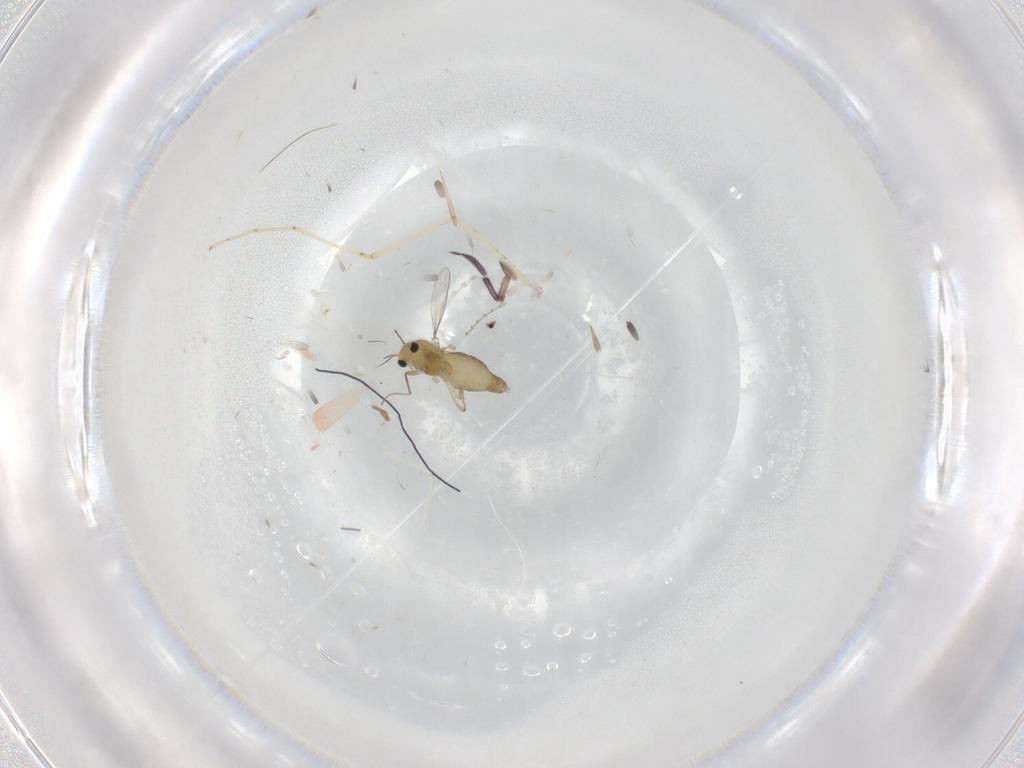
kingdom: Animalia
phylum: Arthropoda
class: Insecta
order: Diptera
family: Chironomidae
